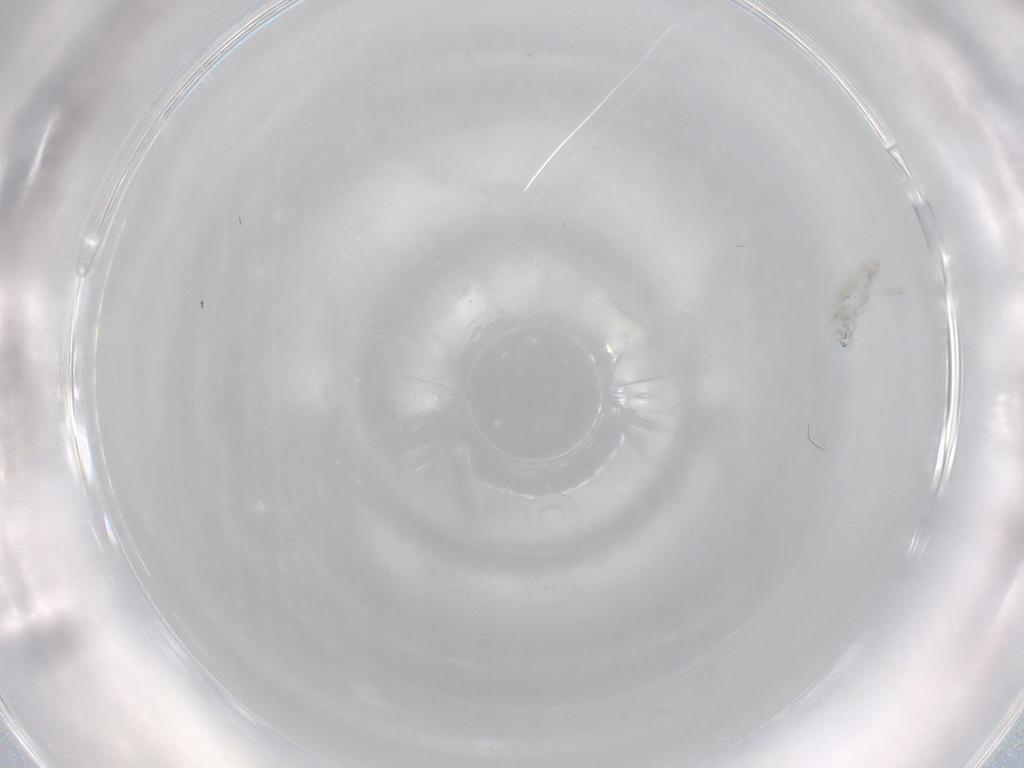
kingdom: Animalia
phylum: Arthropoda
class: Collembola
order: Entomobryomorpha
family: Entomobryidae
